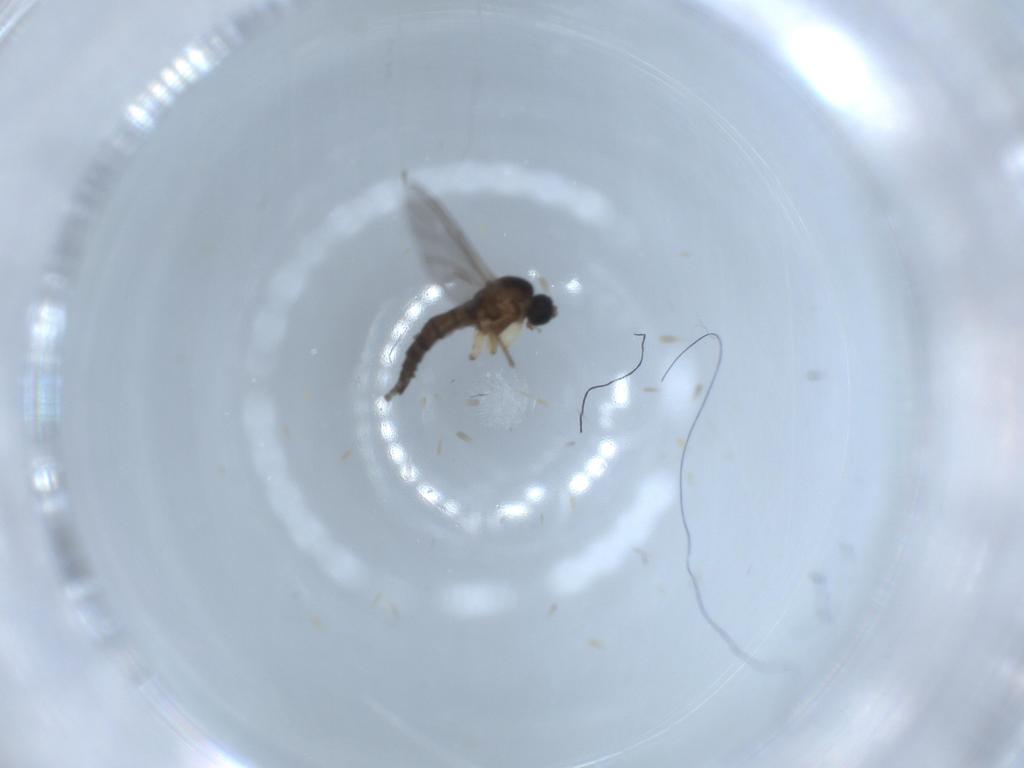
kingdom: Animalia
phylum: Arthropoda
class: Insecta
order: Diptera
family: Sciaridae
